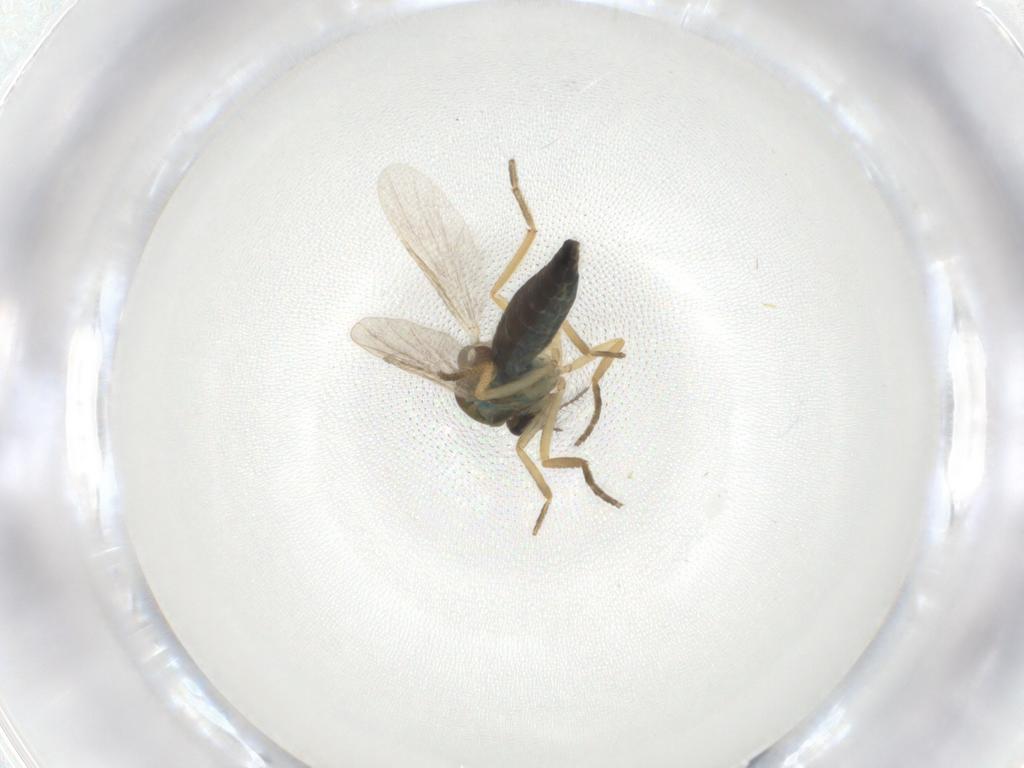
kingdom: Animalia
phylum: Arthropoda
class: Insecta
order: Diptera
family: Ceratopogonidae
